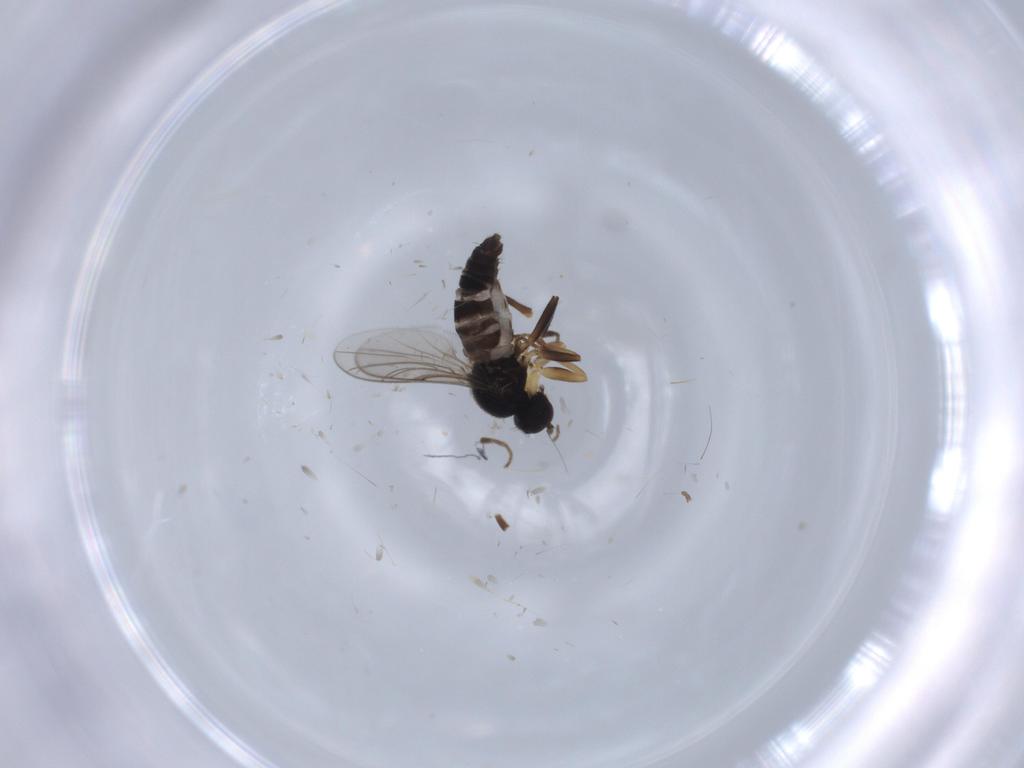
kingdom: Animalia
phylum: Arthropoda
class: Insecta
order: Diptera
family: Hybotidae
